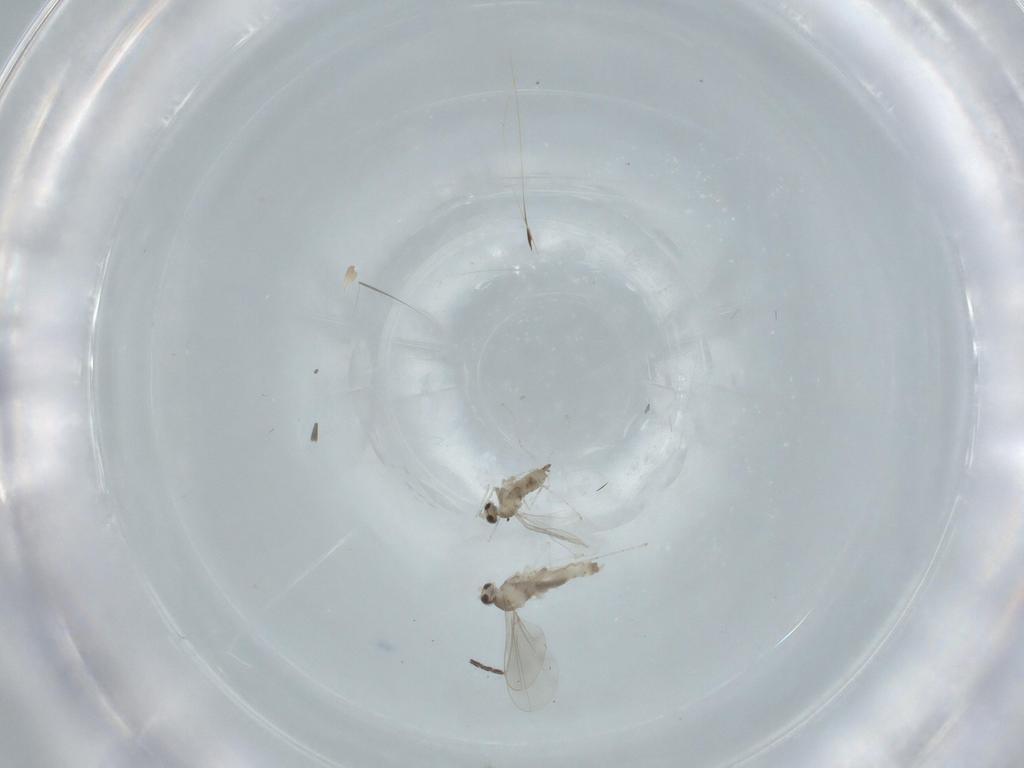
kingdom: Animalia
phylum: Arthropoda
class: Insecta
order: Diptera
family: Cecidomyiidae
